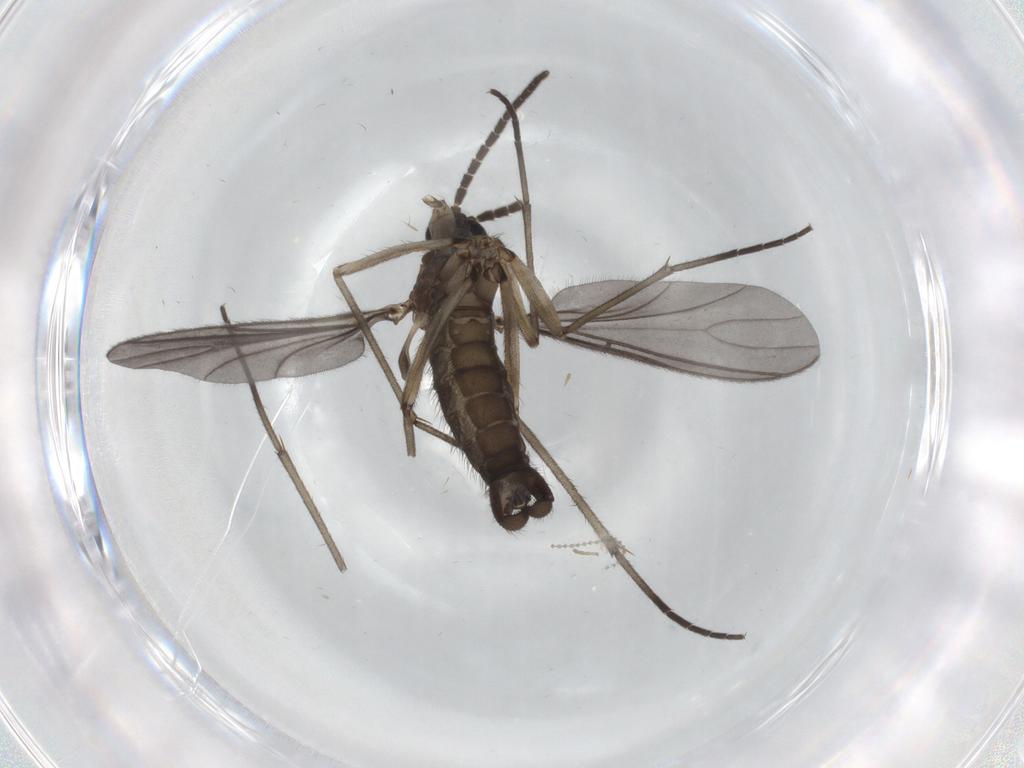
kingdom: Animalia
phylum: Arthropoda
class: Insecta
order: Diptera
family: Sciaridae
